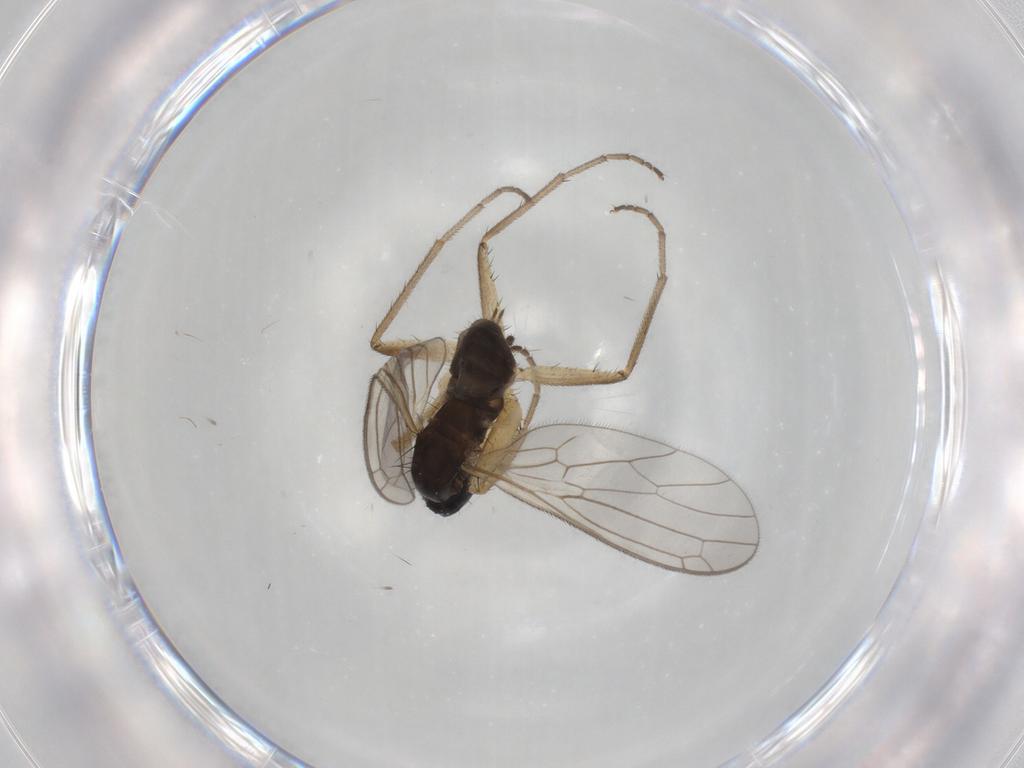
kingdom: Animalia
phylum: Arthropoda
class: Insecta
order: Diptera
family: Empididae
